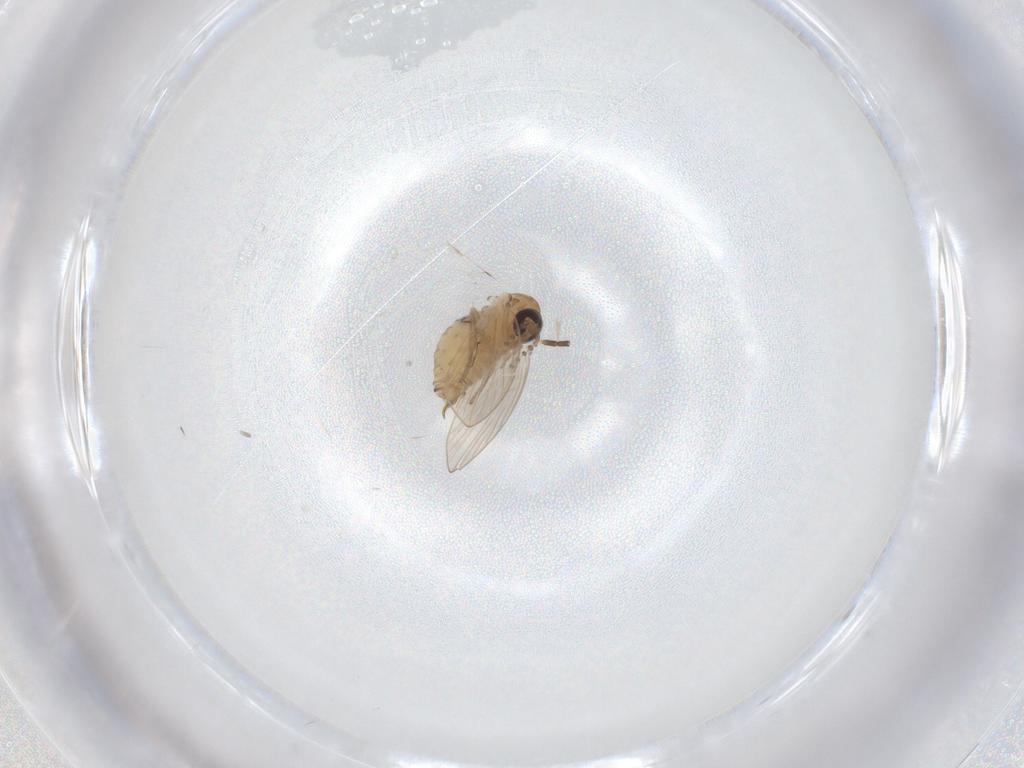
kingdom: Animalia
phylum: Arthropoda
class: Insecta
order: Diptera
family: Psychodidae
